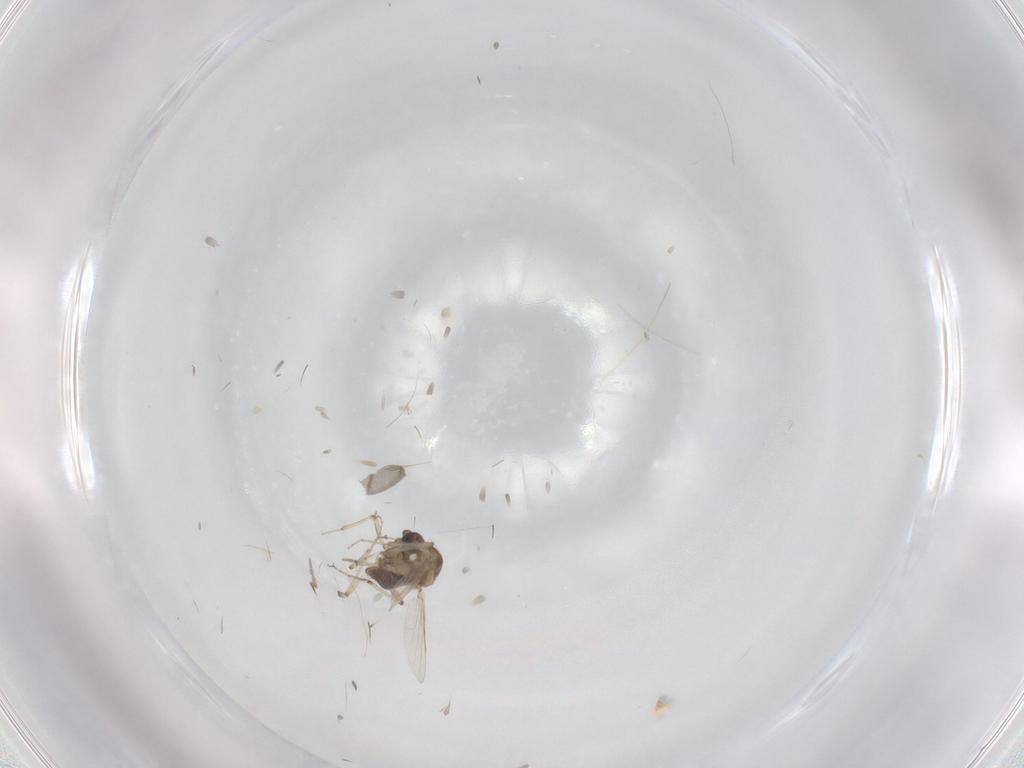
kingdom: Animalia
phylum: Arthropoda
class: Insecta
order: Diptera
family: Ceratopogonidae
